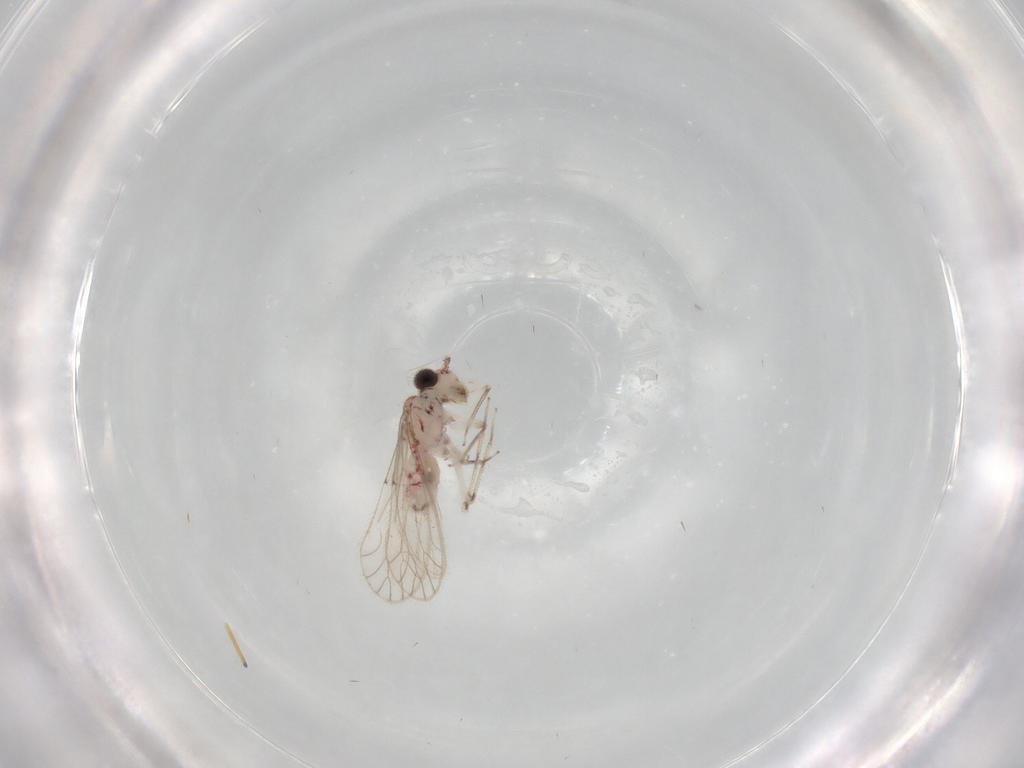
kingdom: Animalia
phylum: Arthropoda
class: Insecta
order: Psocodea
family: Caeciliusidae
